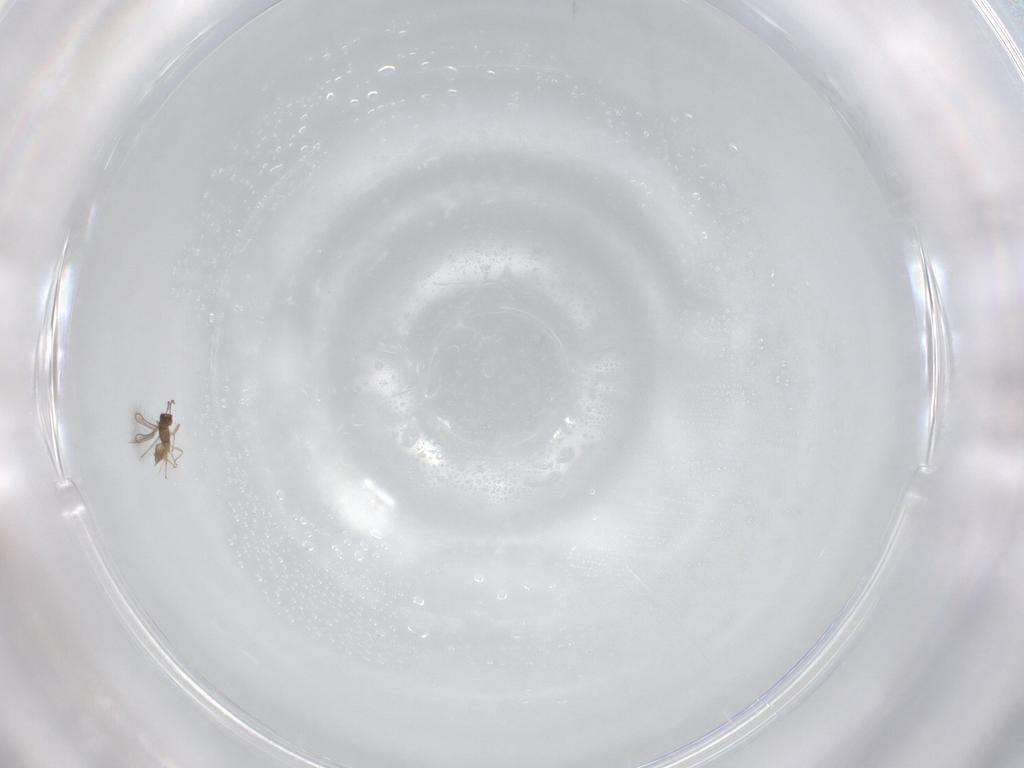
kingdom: Animalia
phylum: Arthropoda
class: Insecta
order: Hymenoptera
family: Mymaridae
